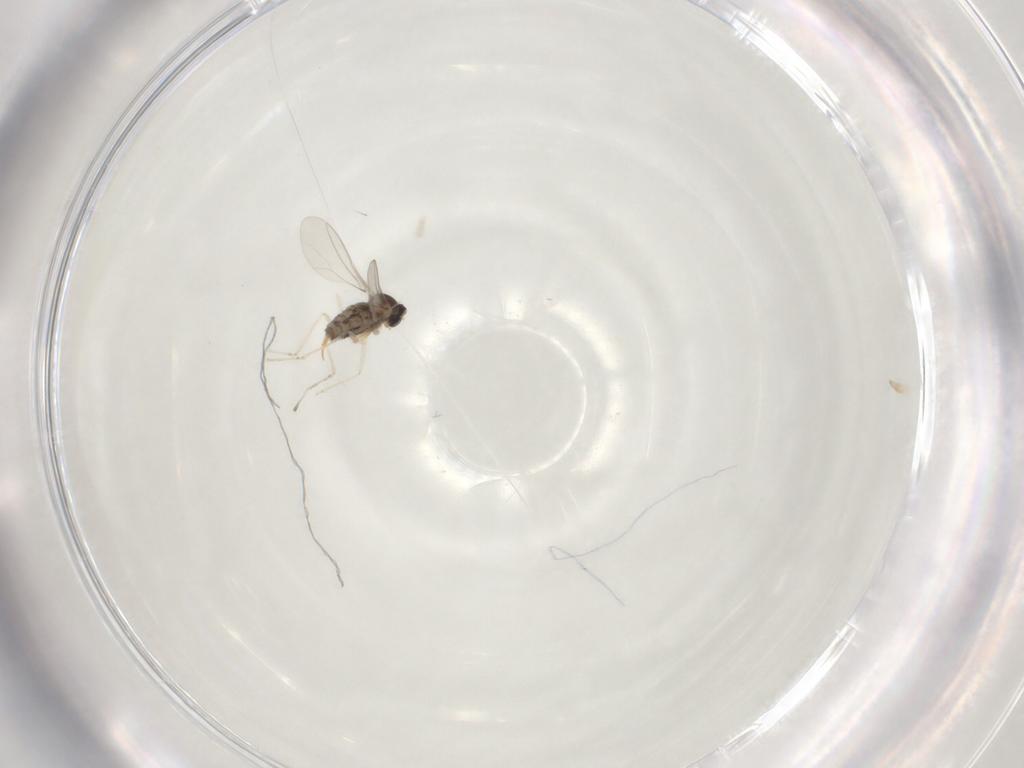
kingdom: Animalia
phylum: Arthropoda
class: Insecta
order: Diptera
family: Cecidomyiidae
